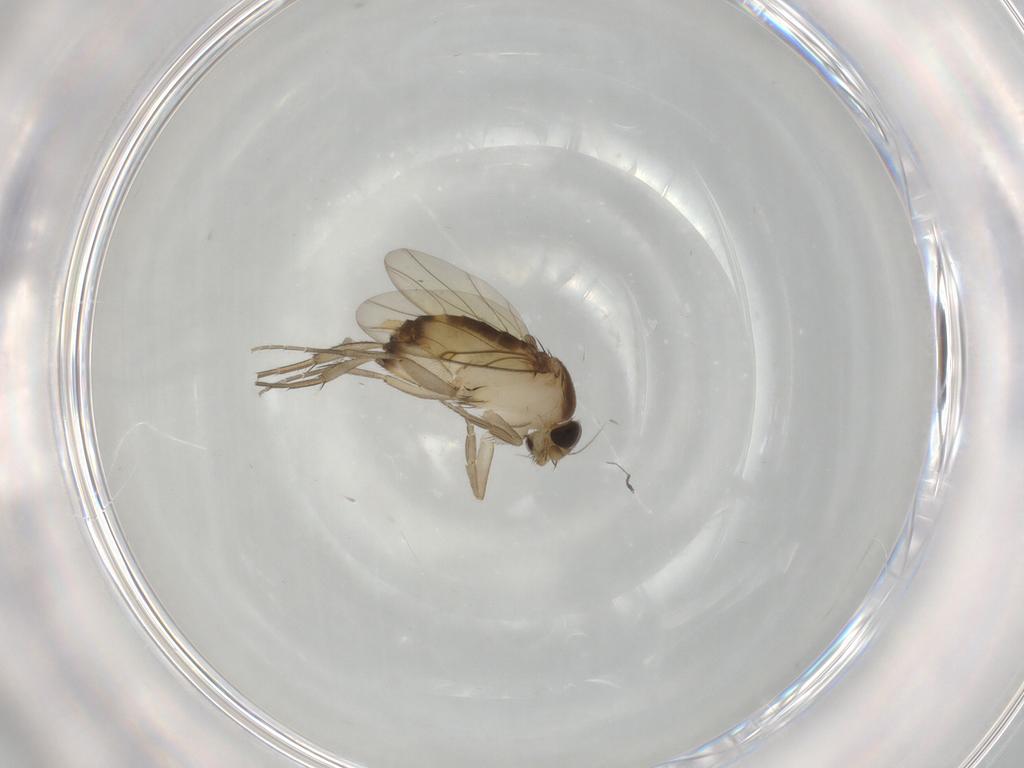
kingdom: Animalia
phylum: Arthropoda
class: Insecta
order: Diptera
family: Phoridae
